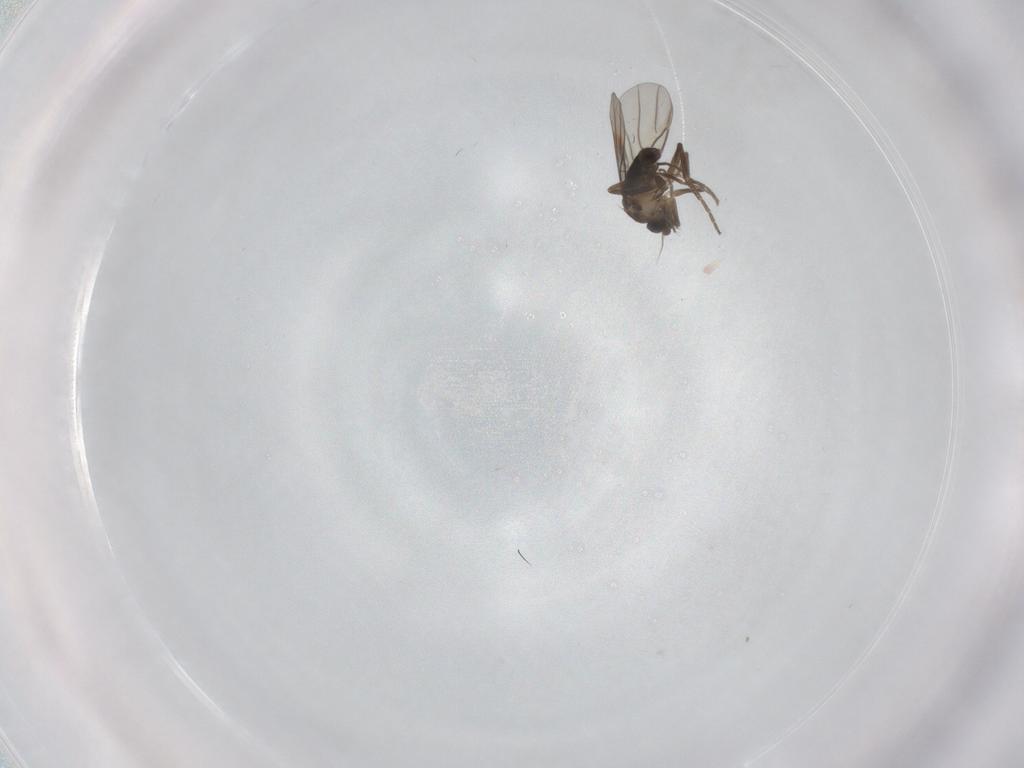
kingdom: Animalia
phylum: Arthropoda
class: Insecta
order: Diptera
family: Phoridae
